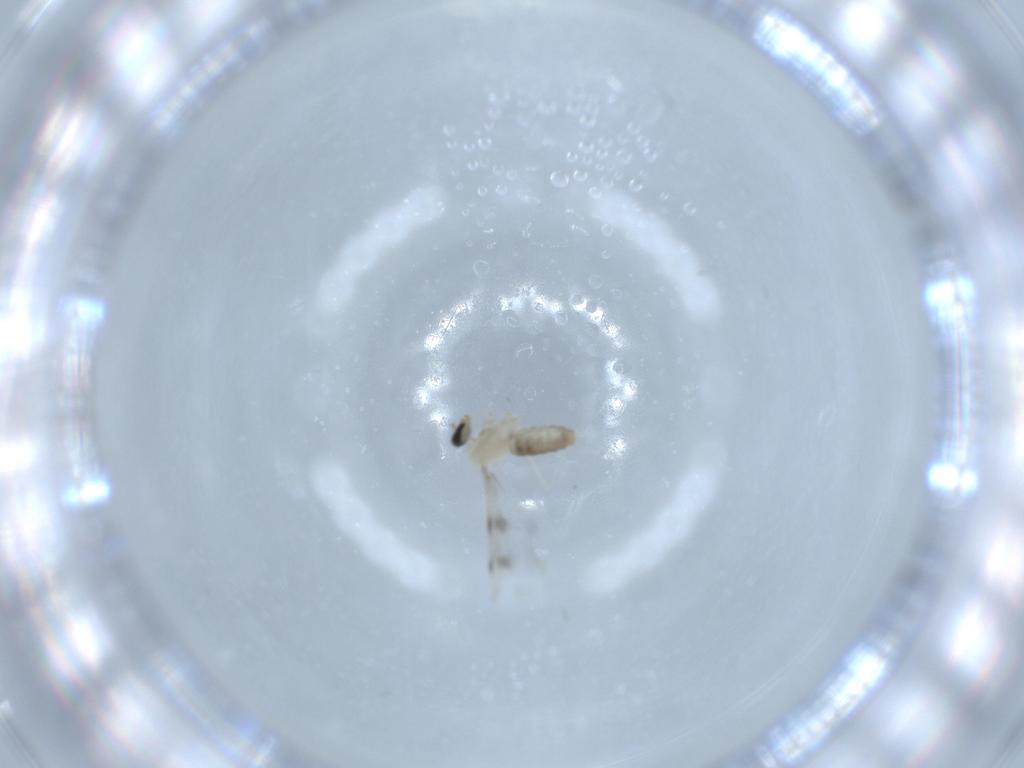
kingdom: Animalia
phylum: Arthropoda
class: Insecta
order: Diptera
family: Cecidomyiidae
